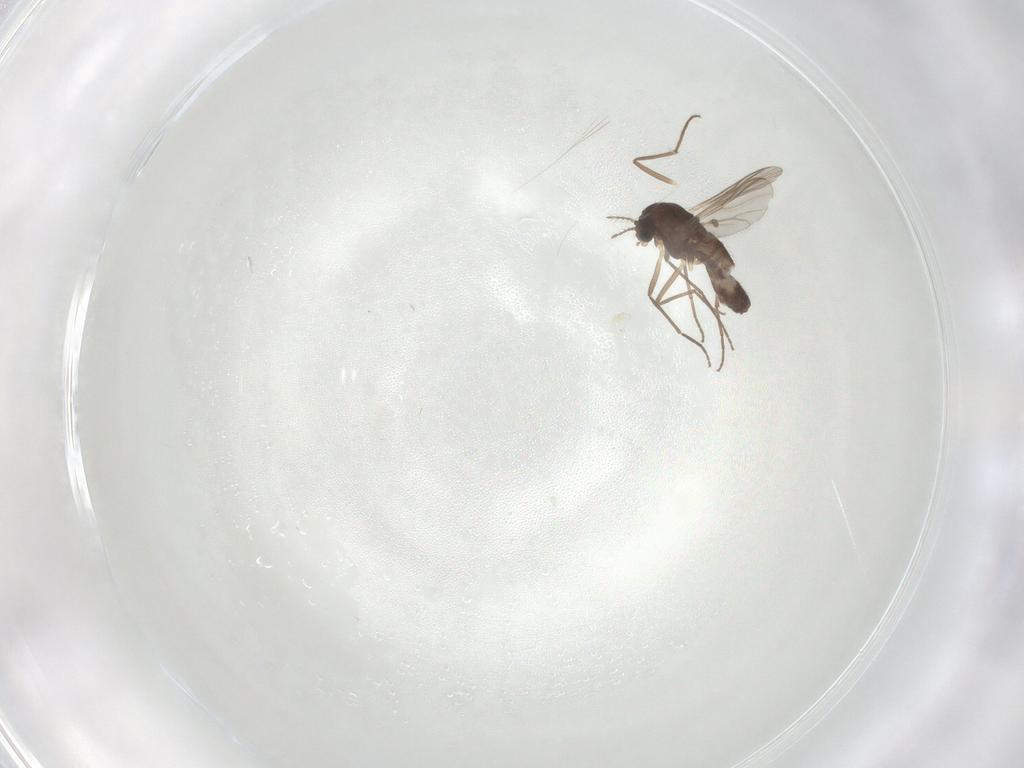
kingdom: Animalia
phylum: Arthropoda
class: Insecta
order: Diptera
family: Chironomidae
